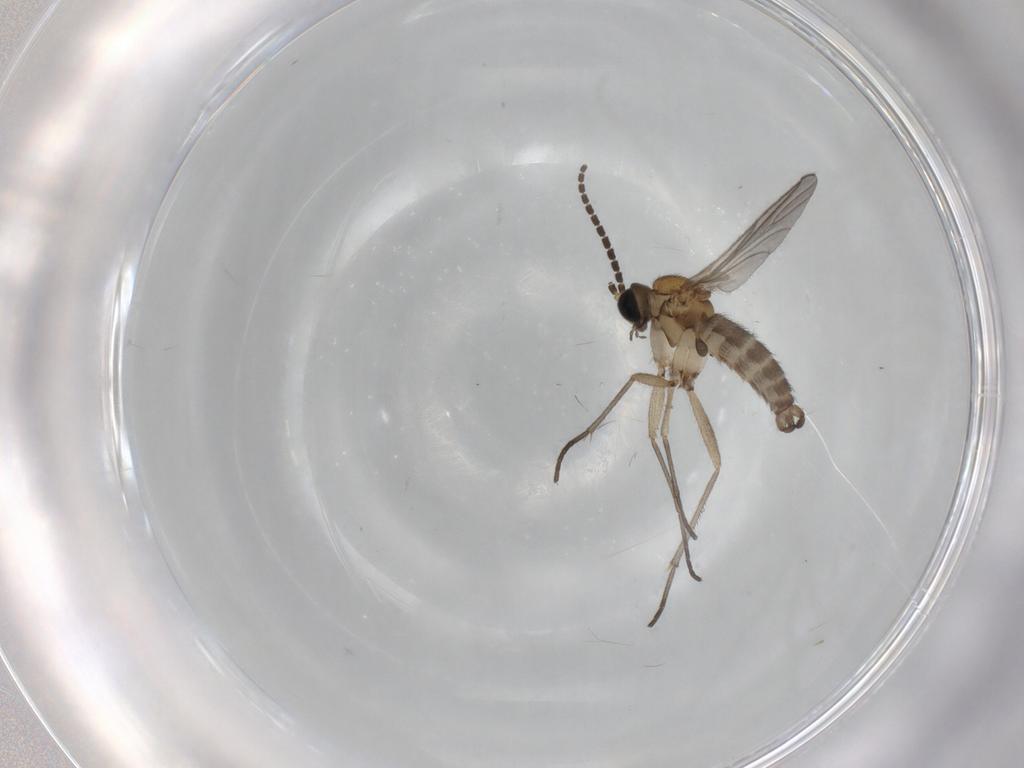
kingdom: Animalia
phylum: Arthropoda
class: Insecta
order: Diptera
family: Sciaridae
